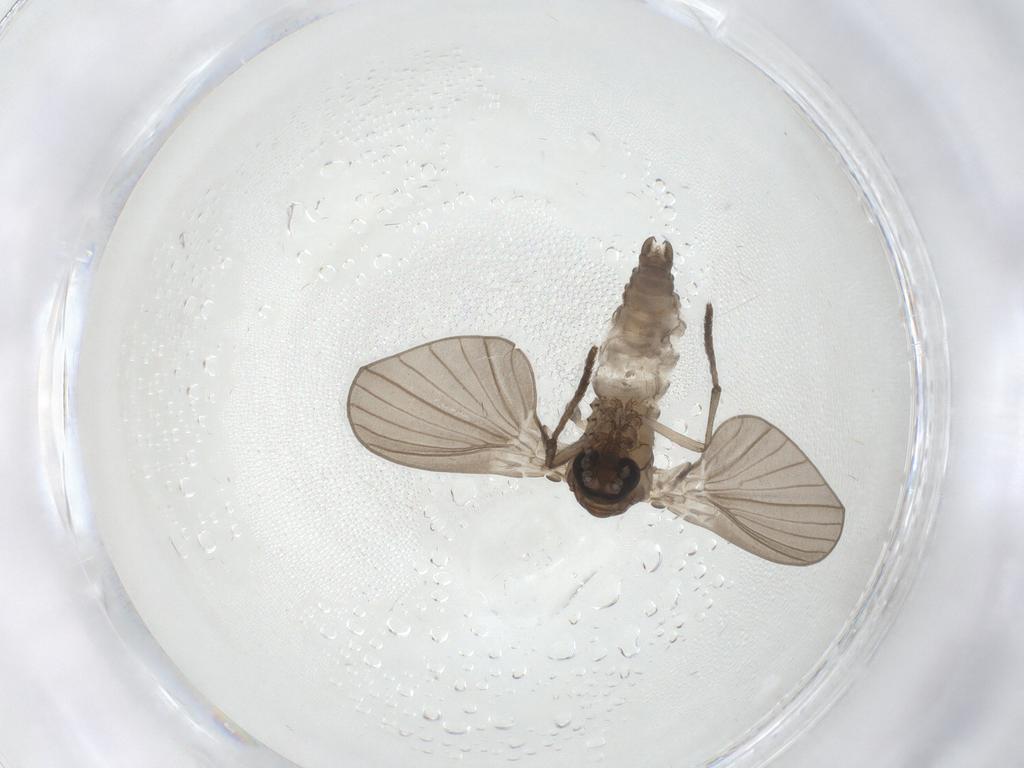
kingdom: Animalia
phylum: Arthropoda
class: Insecta
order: Diptera
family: Psychodidae
